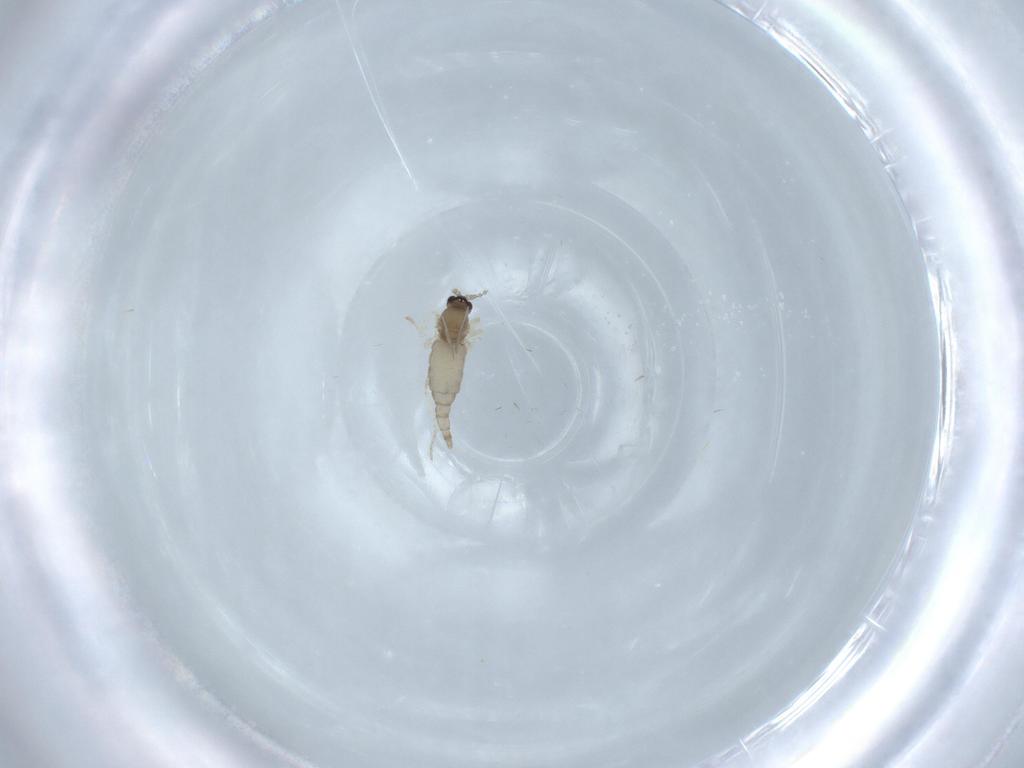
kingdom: Animalia
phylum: Arthropoda
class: Insecta
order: Diptera
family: Cecidomyiidae
